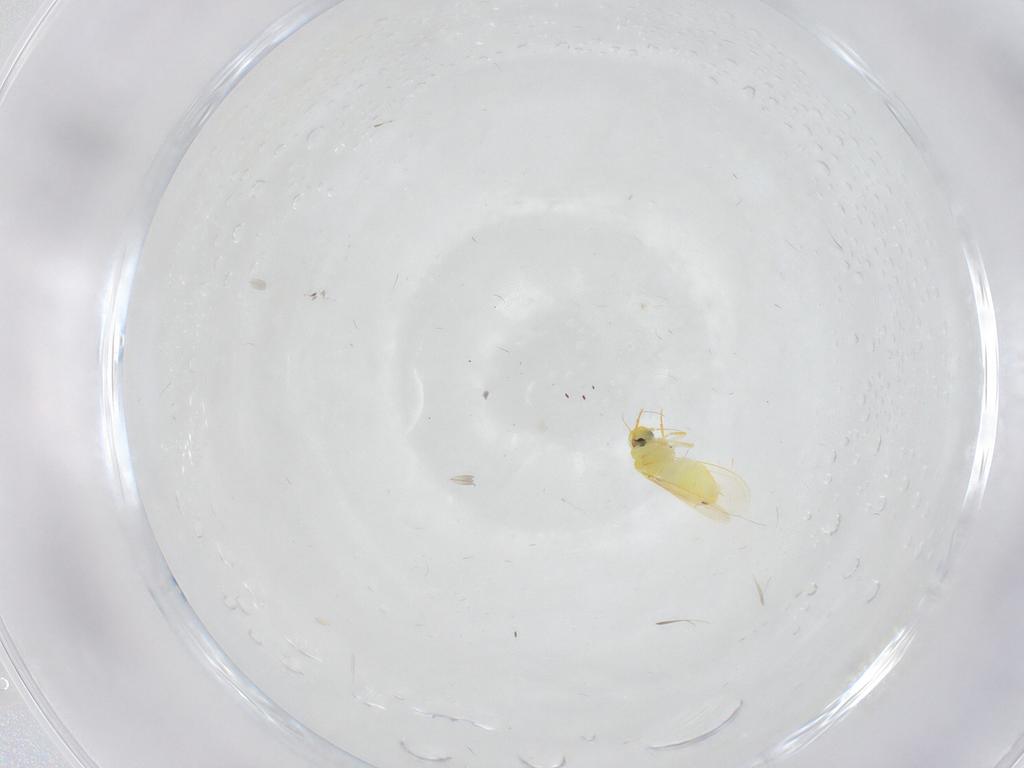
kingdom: Animalia
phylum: Arthropoda
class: Insecta
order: Hemiptera
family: Aleyrodidae
